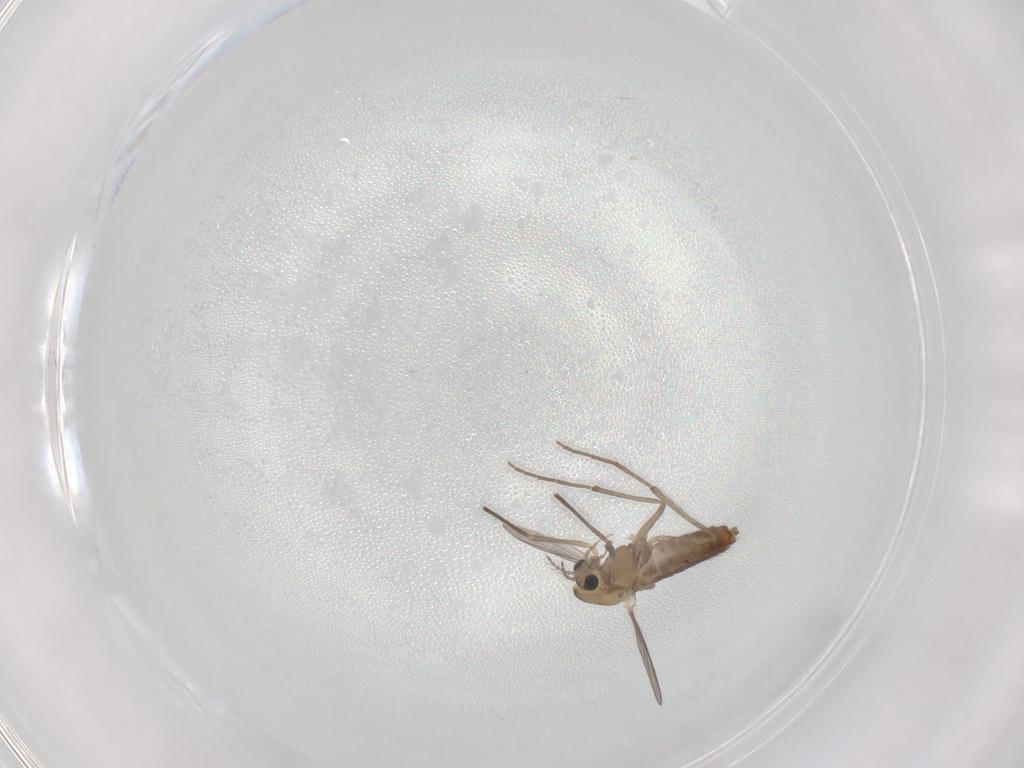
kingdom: Animalia
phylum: Arthropoda
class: Insecta
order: Diptera
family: Chironomidae
